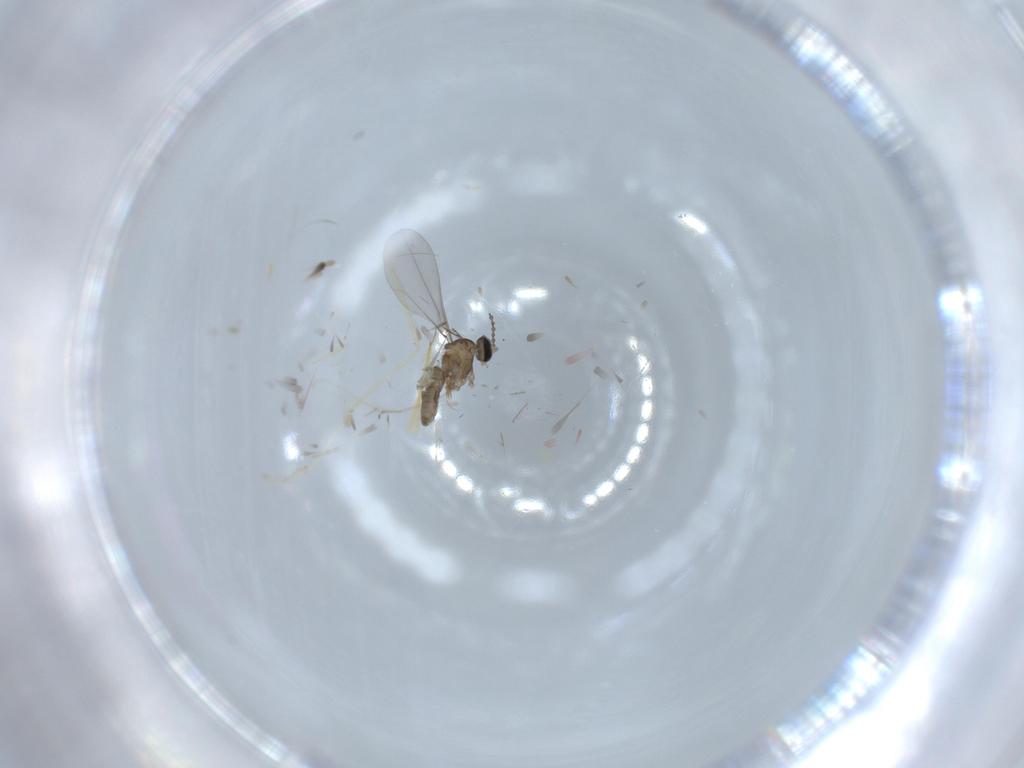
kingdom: Animalia
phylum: Arthropoda
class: Insecta
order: Diptera
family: Cecidomyiidae
